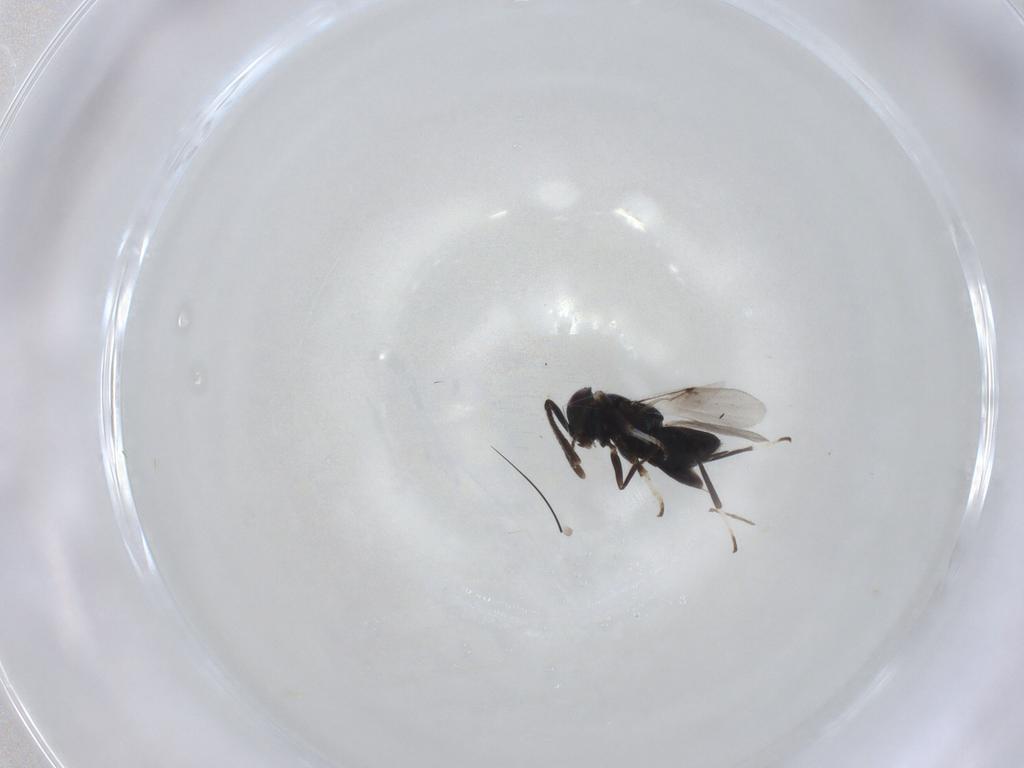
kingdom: Animalia
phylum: Arthropoda
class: Insecta
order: Hymenoptera
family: Encyrtidae
